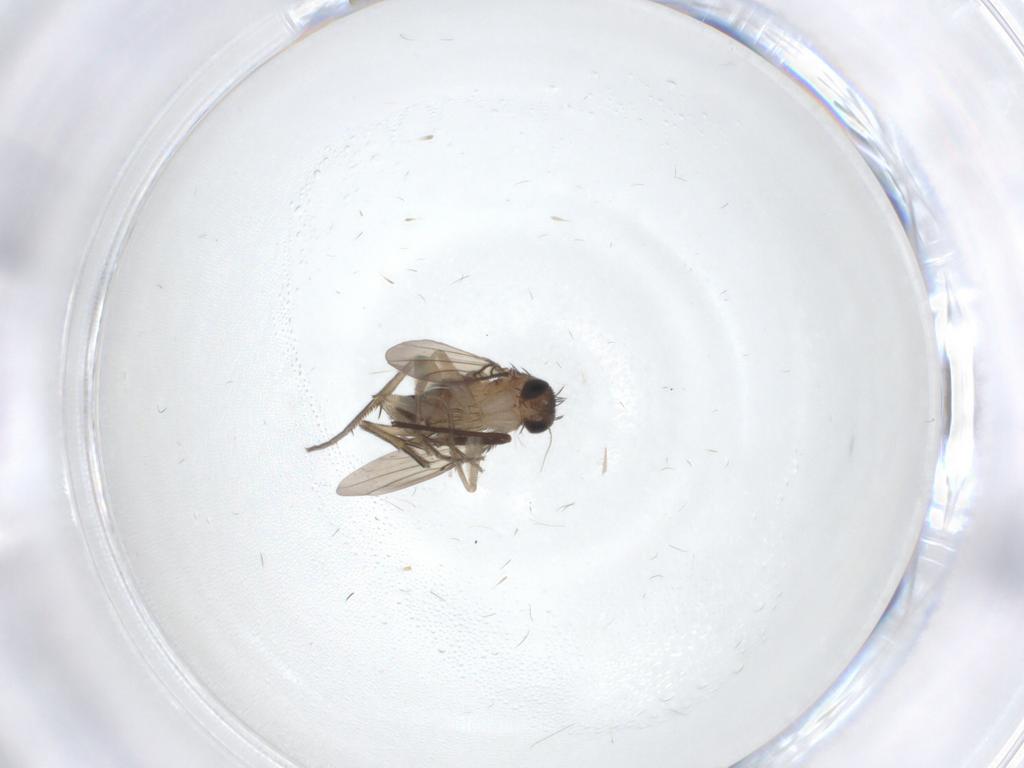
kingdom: Animalia
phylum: Arthropoda
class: Insecta
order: Diptera
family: Phoridae
